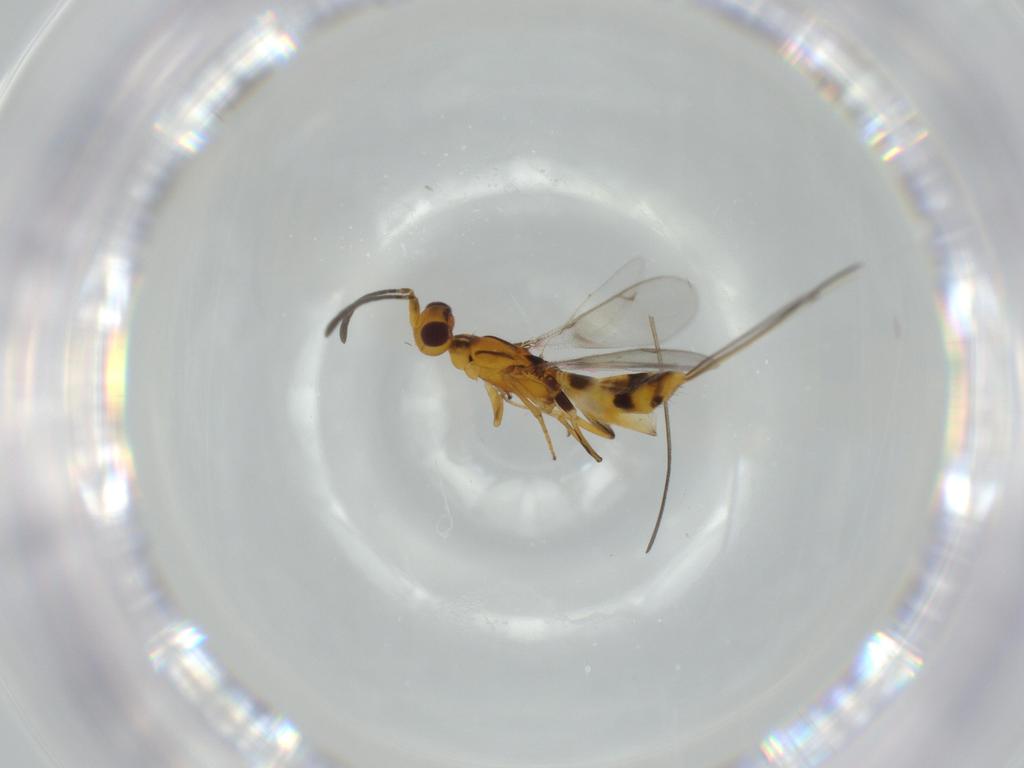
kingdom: Animalia
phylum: Arthropoda
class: Insecta
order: Hymenoptera
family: Eupelmidae
